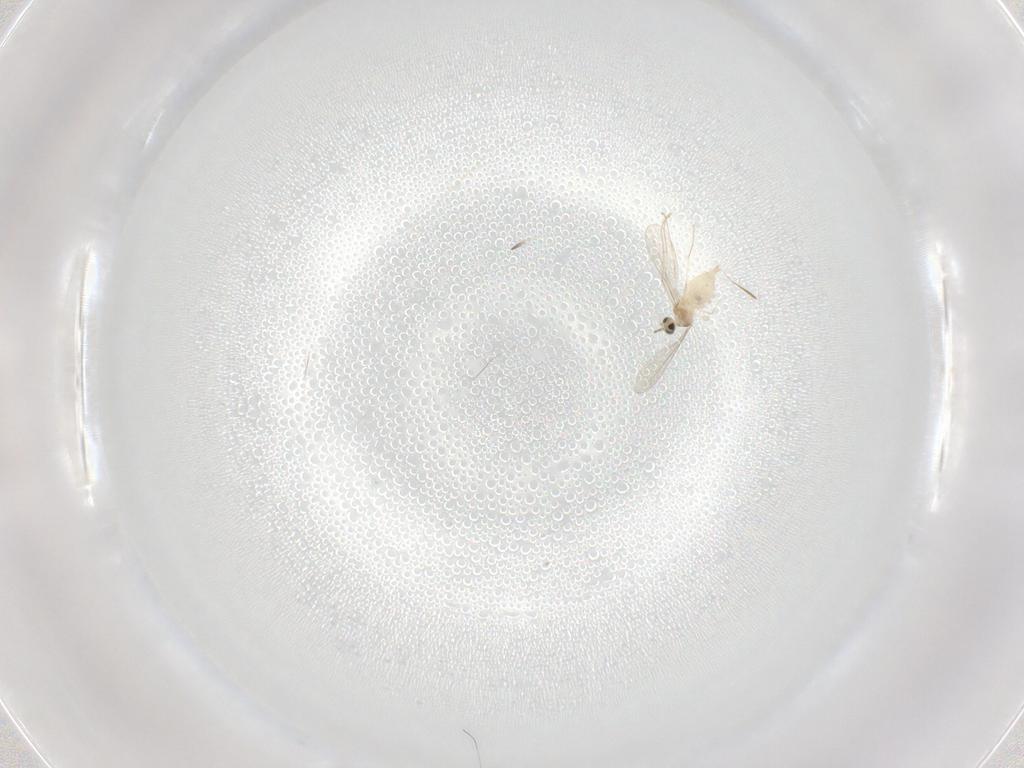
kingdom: Animalia
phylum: Arthropoda
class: Insecta
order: Diptera
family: Cecidomyiidae
